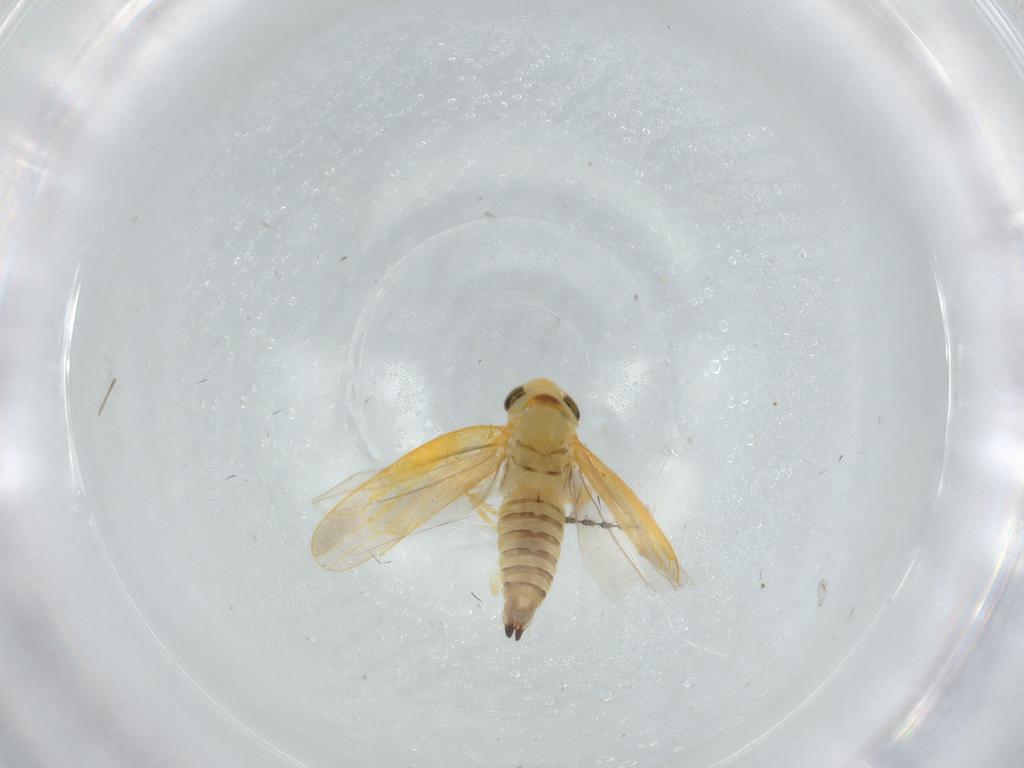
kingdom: Animalia
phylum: Arthropoda
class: Insecta
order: Hemiptera
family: Cicadellidae
